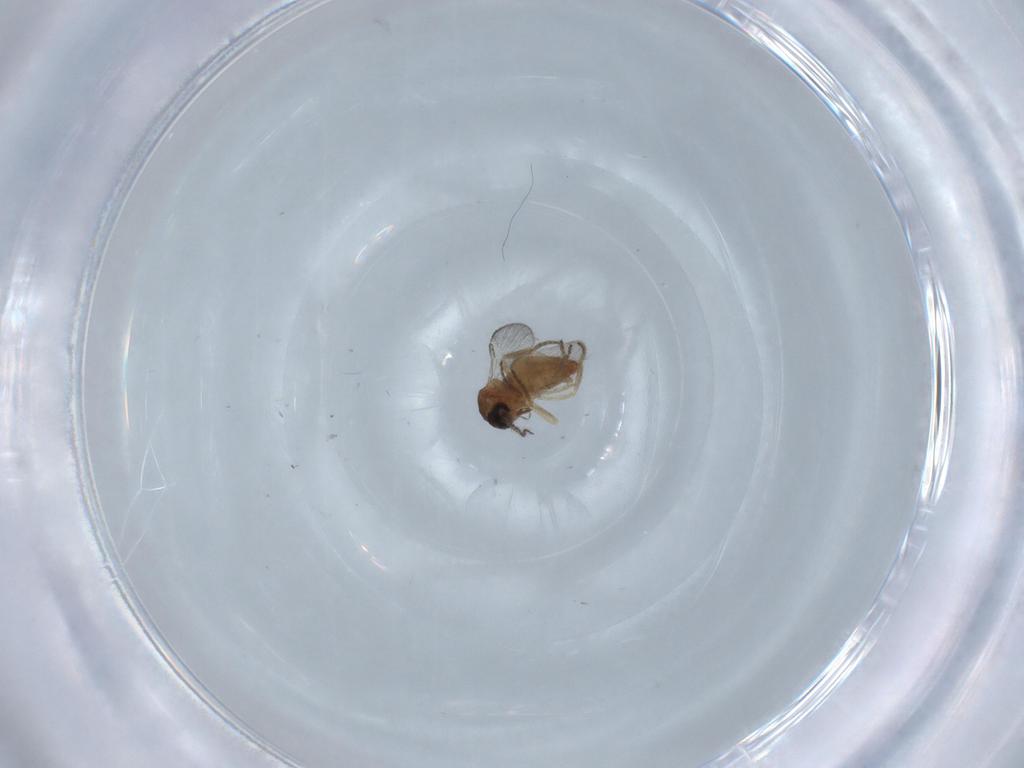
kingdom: Animalia
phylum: Arthropoda
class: Insecta
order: Diptera
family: Ceratopogonidae
